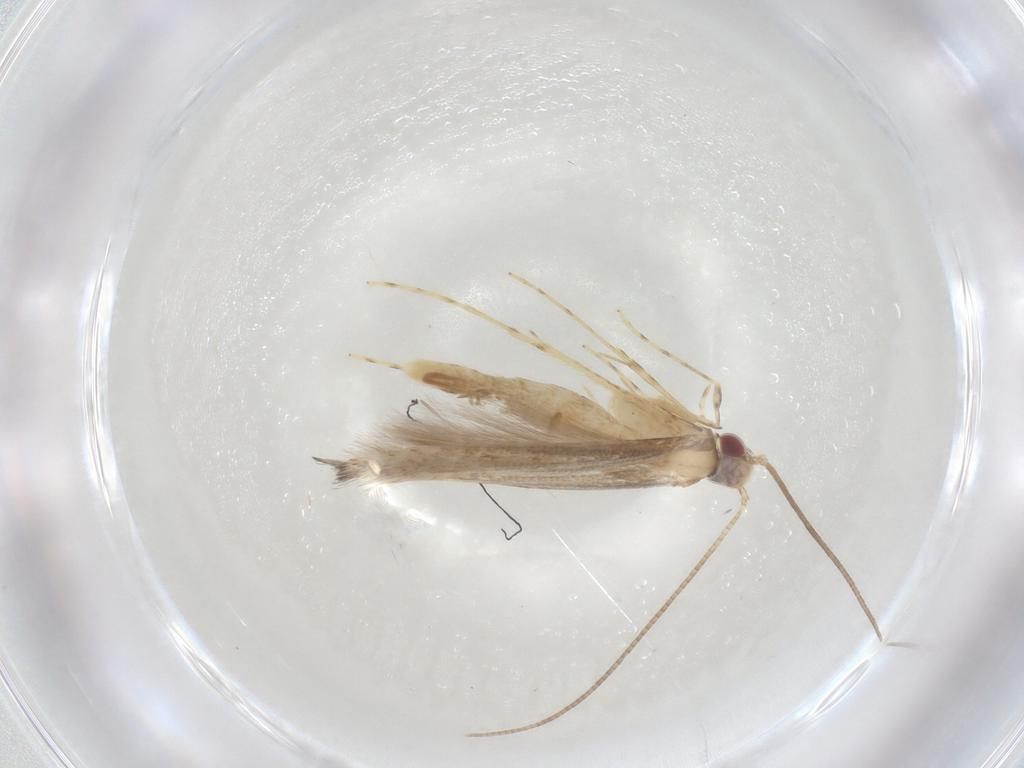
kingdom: Animalia
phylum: Arthropoda
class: Insecta
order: Lepidoptera
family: Gracillariidae
